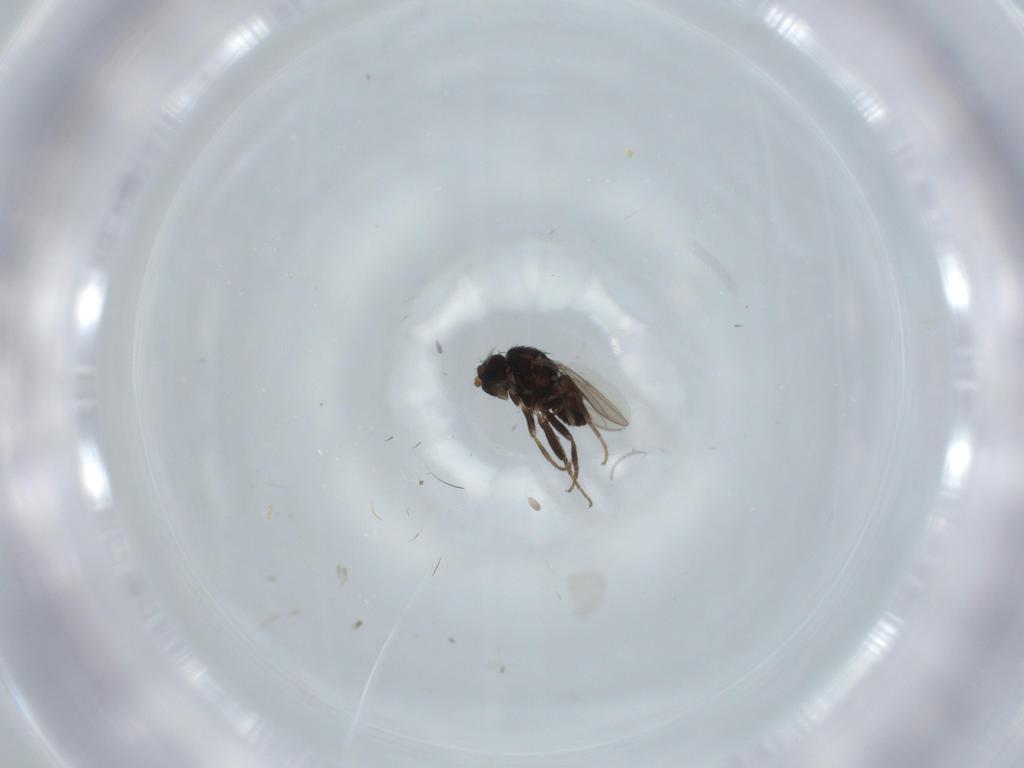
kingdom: Animalia
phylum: Arthropoda
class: Insecta
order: Diptera
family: Sphaeroceridae
